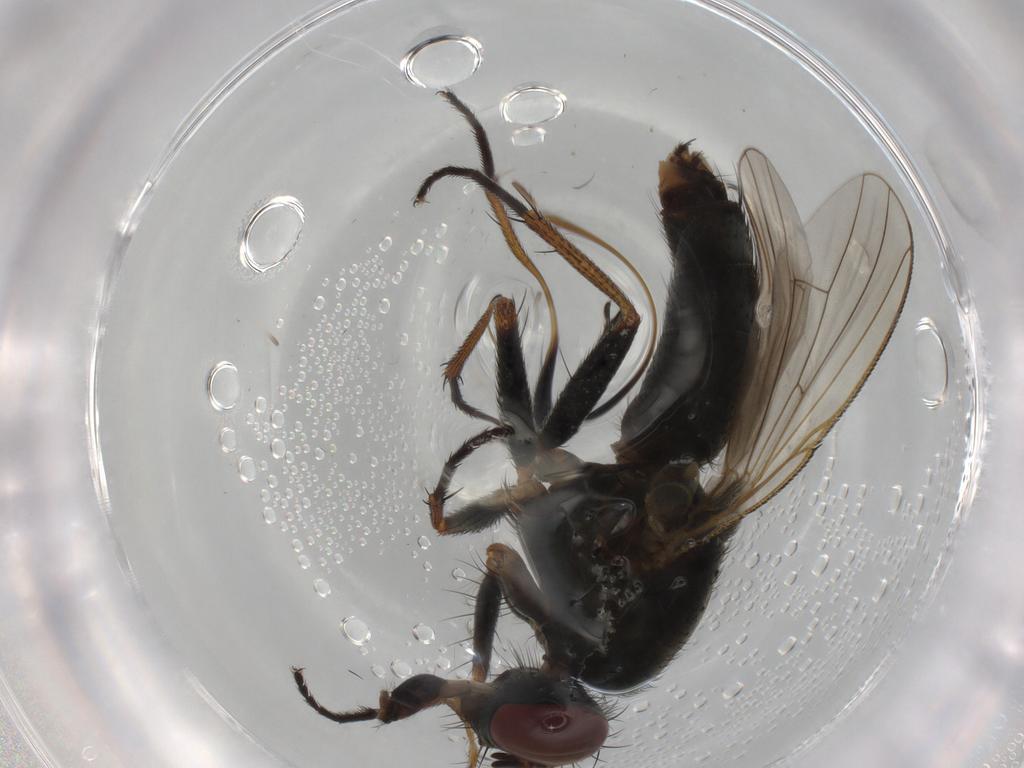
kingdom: Animalia
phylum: Arthropoda
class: Insecta
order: Diptera
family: Muscidae
